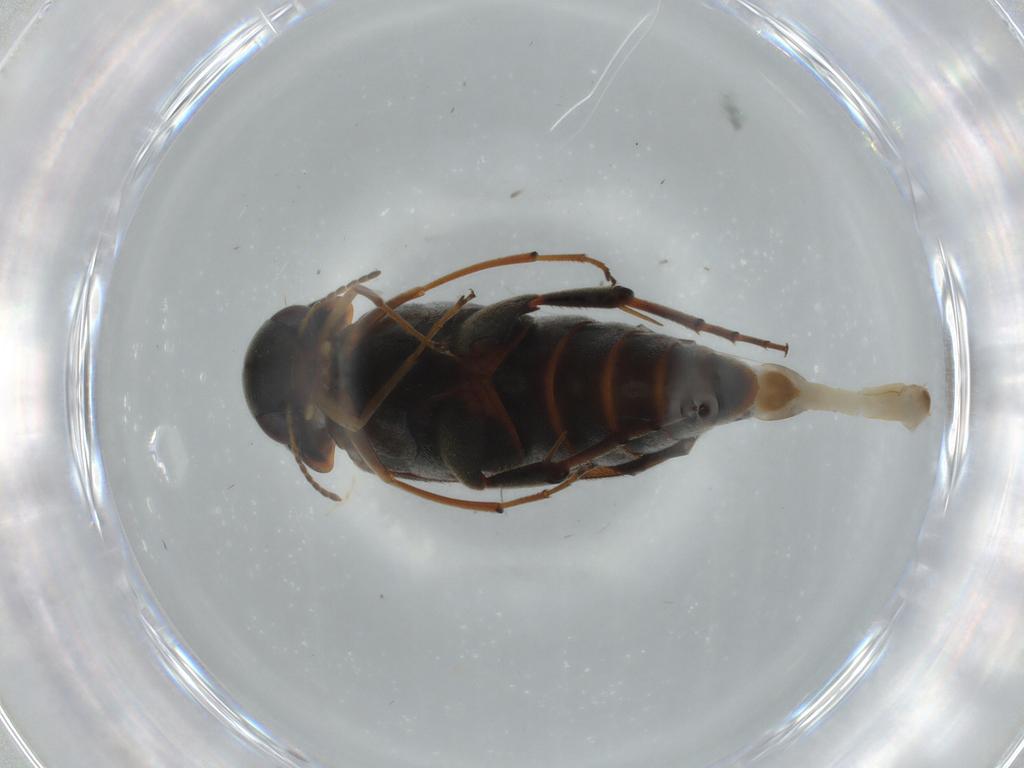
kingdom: Animalia
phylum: Arthropoda
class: Insecta
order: Coleoptera
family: Mordellidae
